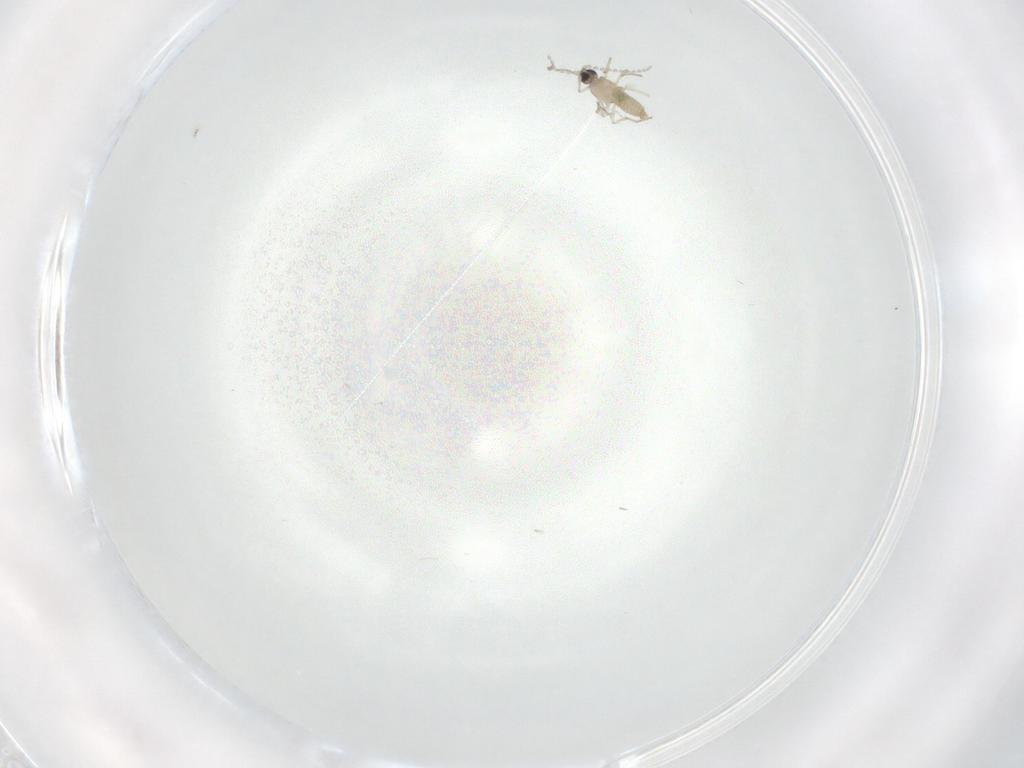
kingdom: Animalia
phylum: Arthropoda
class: Insecta
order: Diptera
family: Cecidomyiidae
